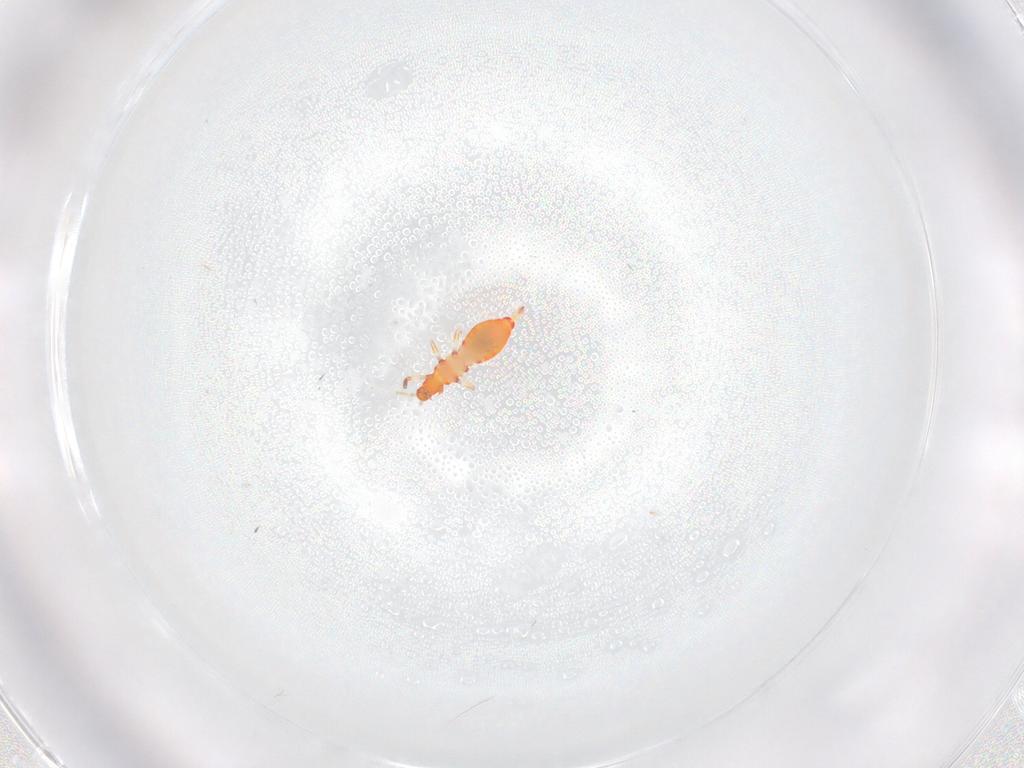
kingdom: Animalia
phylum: Arthropoda
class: Insecta
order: Thysanoptera
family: Aeolothripidae
